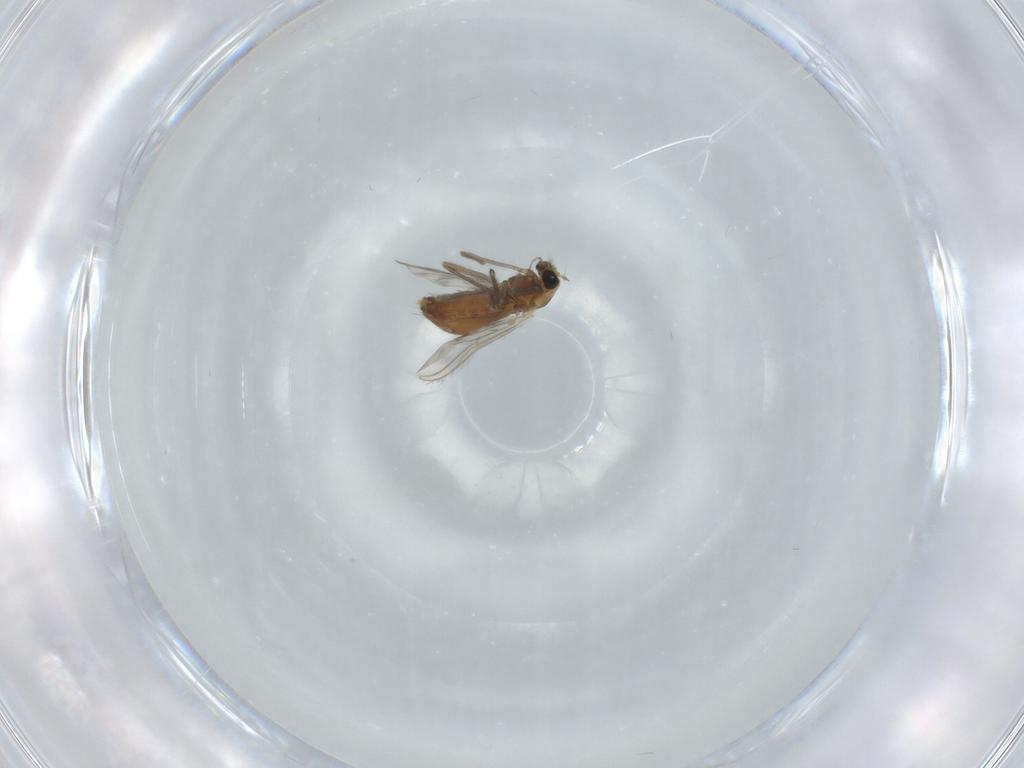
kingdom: Animalia
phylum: Arthropoda
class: Insecta
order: Diptera
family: Chironomidae
